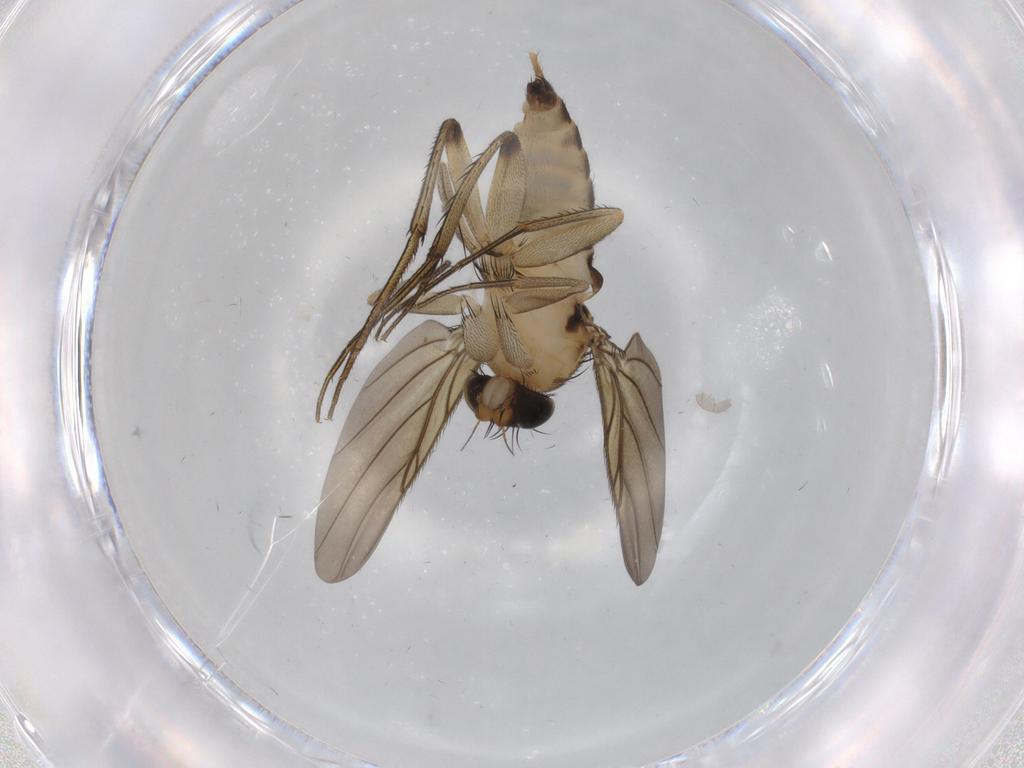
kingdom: Animalia
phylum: Arthropoda
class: Insecta
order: Diptera
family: Phoridae
